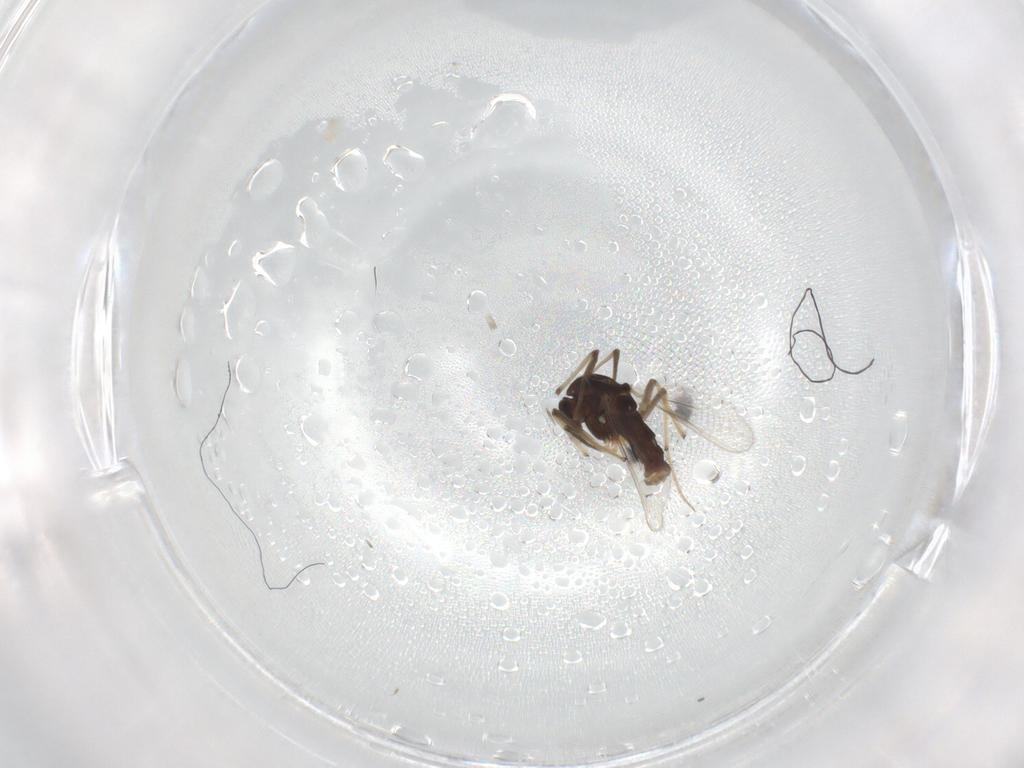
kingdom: Animalia
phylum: Arthropoda
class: Insecta
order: Diptera
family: Chironomidae
